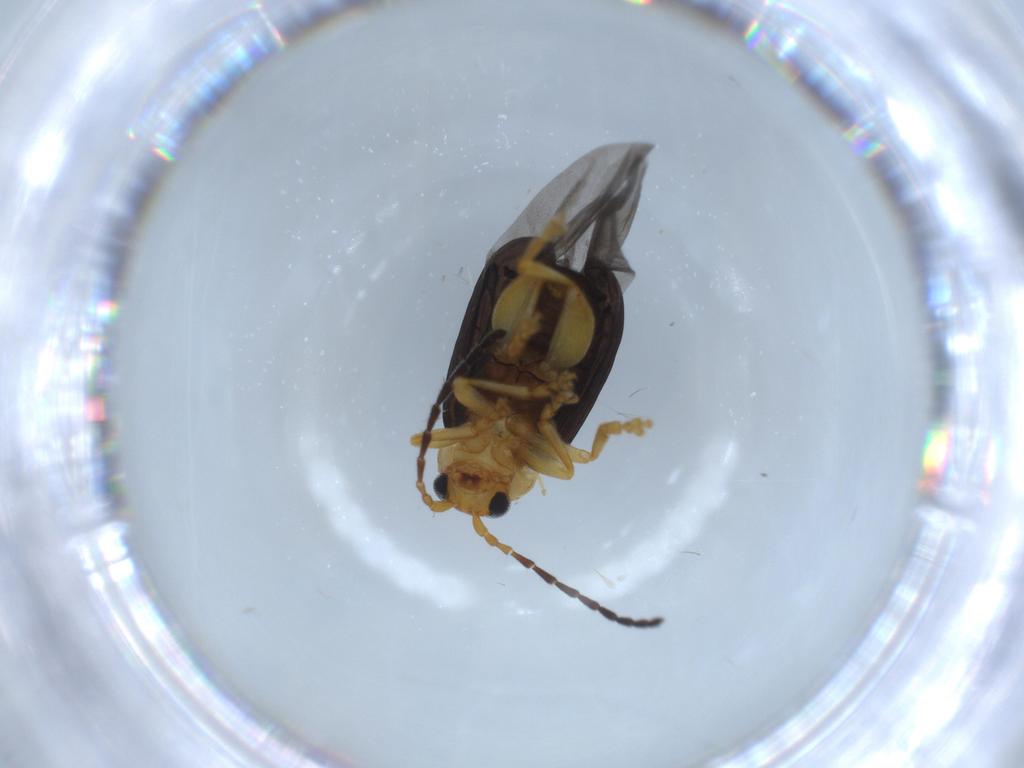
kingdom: Animalia
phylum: Arthropoda
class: Insecta
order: Coleoptera
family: Chrysomelidae
